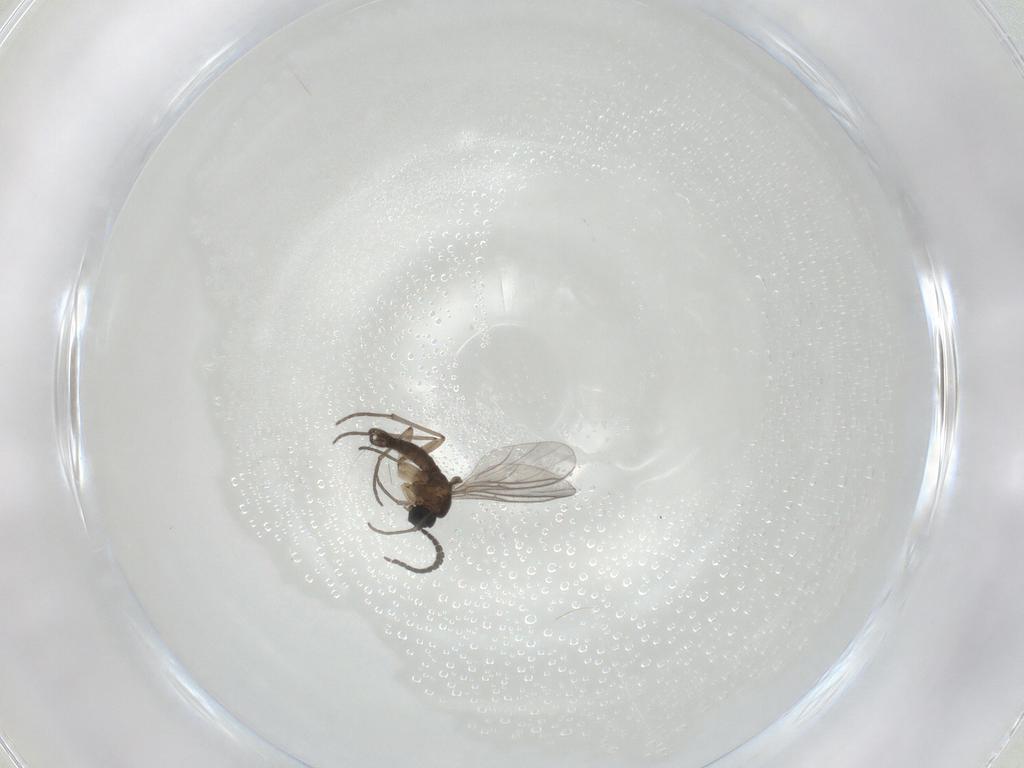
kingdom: Animalia
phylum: Arthropoda
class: Insecta
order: Diptera
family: Sciaridae
